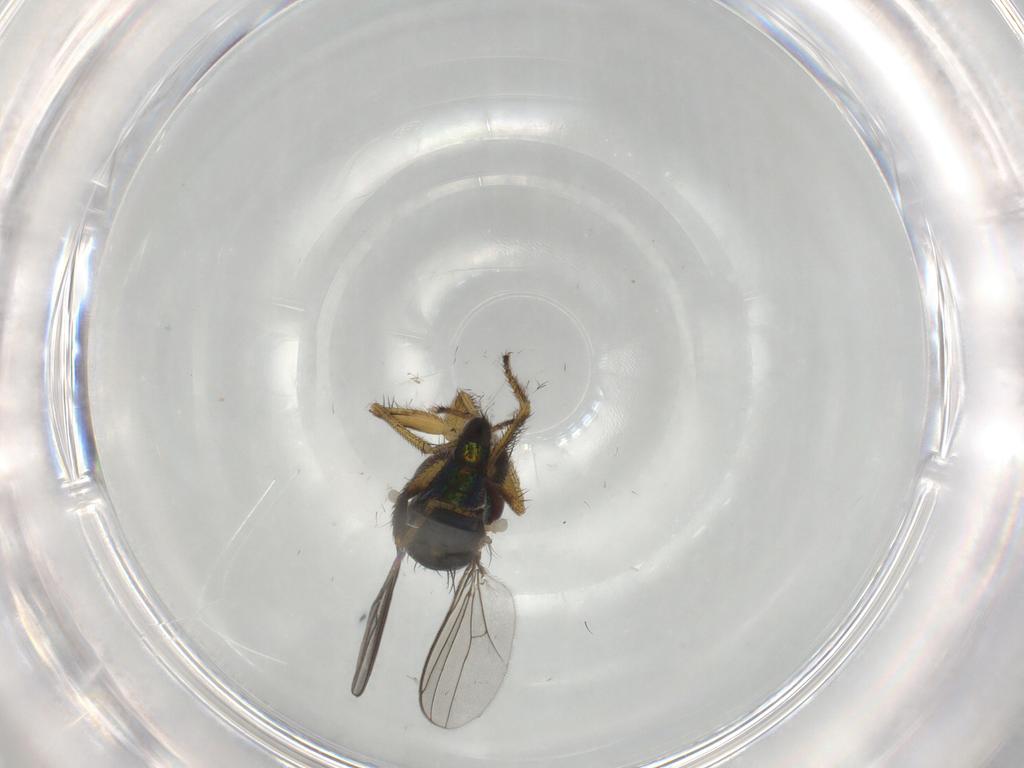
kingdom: Animalia
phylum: Arthropoda
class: Insecta
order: Diptera
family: Dolichopodidae
